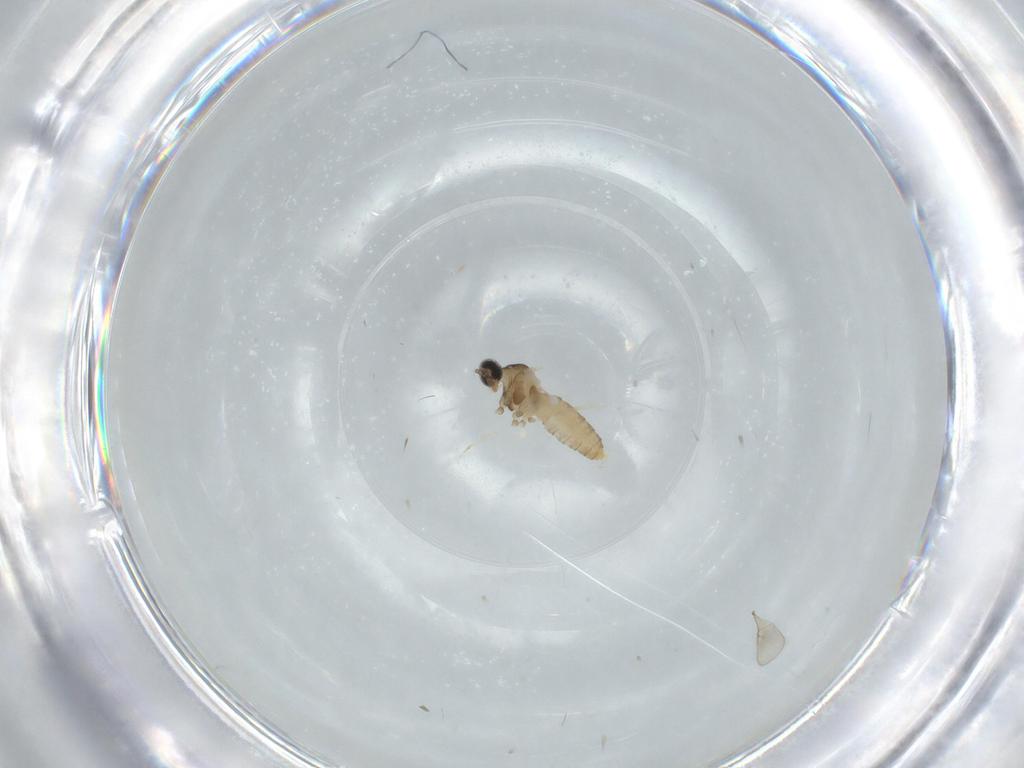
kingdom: Animalia
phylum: Arthropoda
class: Insecta
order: Diptera
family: Cecidomyiidae
